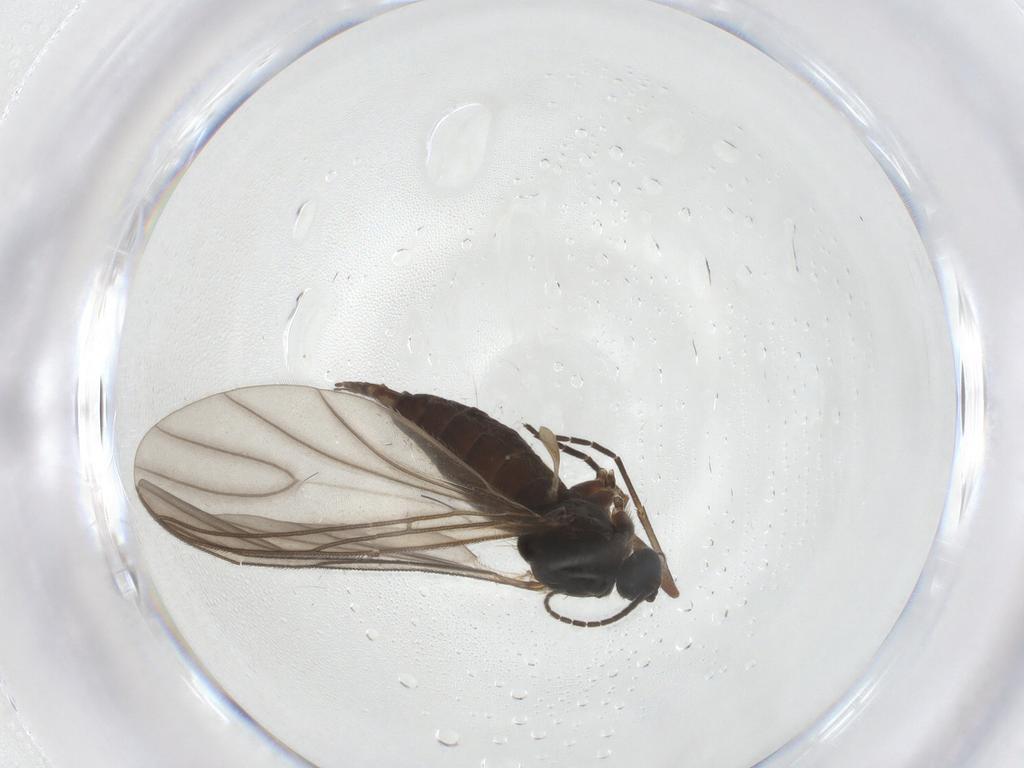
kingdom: Animalia
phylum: Arthropoda
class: Insecta
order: Diptera
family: Sciaridae
